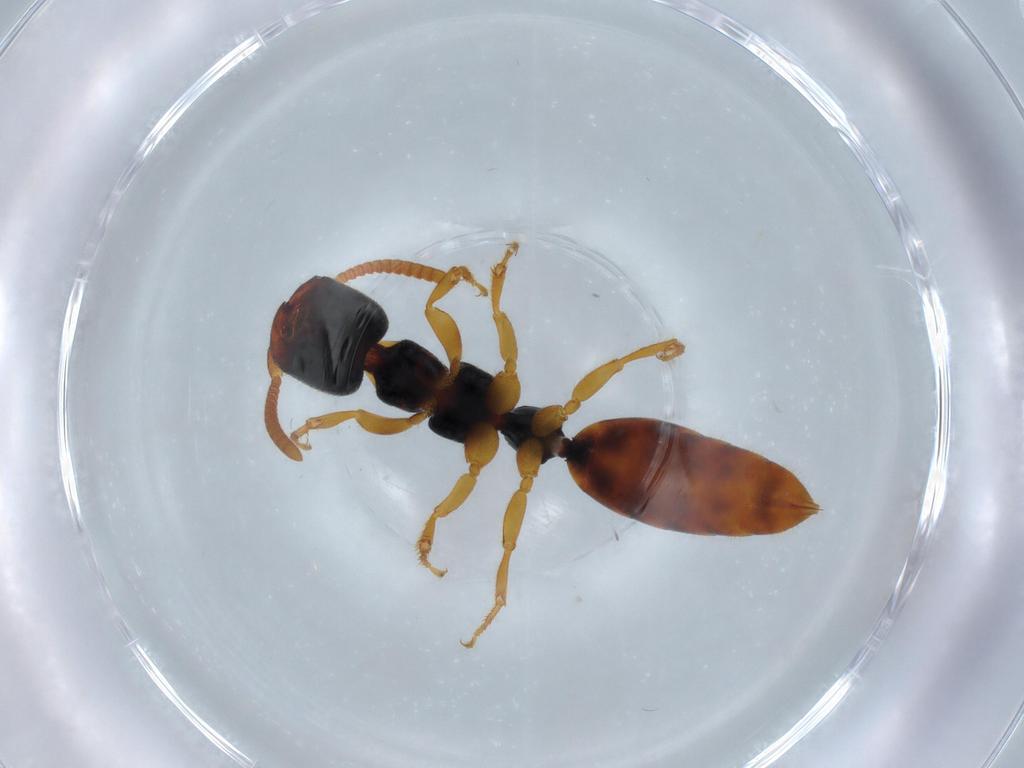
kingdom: Animalia
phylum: Arthropoda
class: Insecta
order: Hymenoptera
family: Bethylidae
